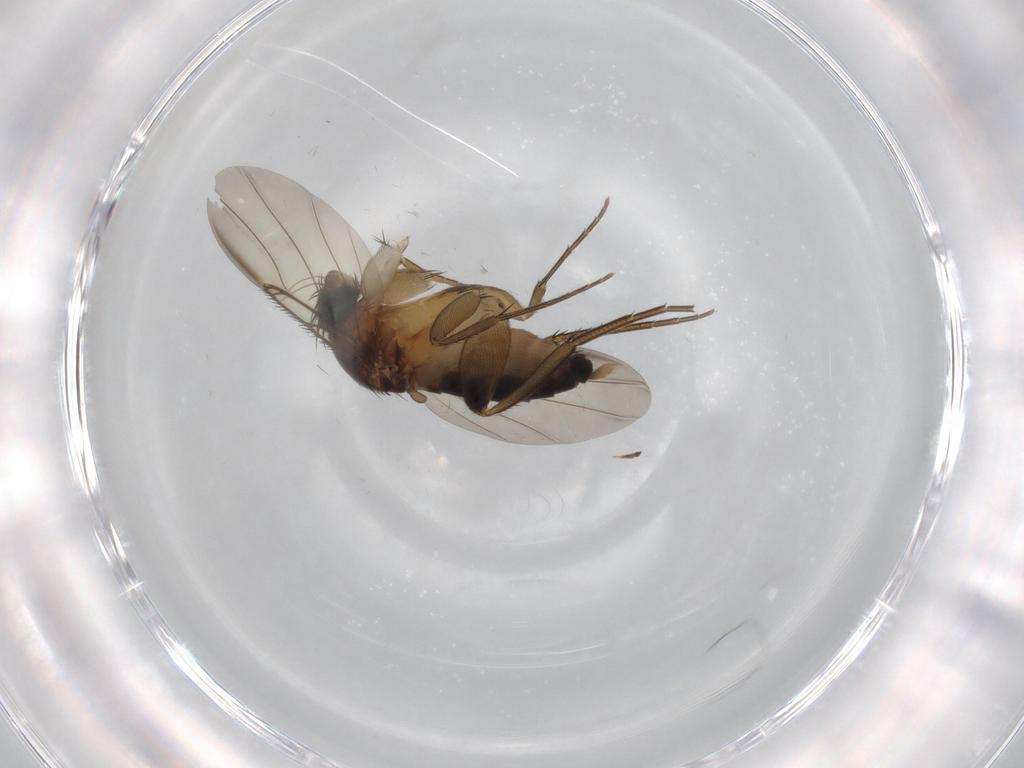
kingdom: Animalia
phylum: Arthropoda
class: Insecta
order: Diptera
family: Phoridae
